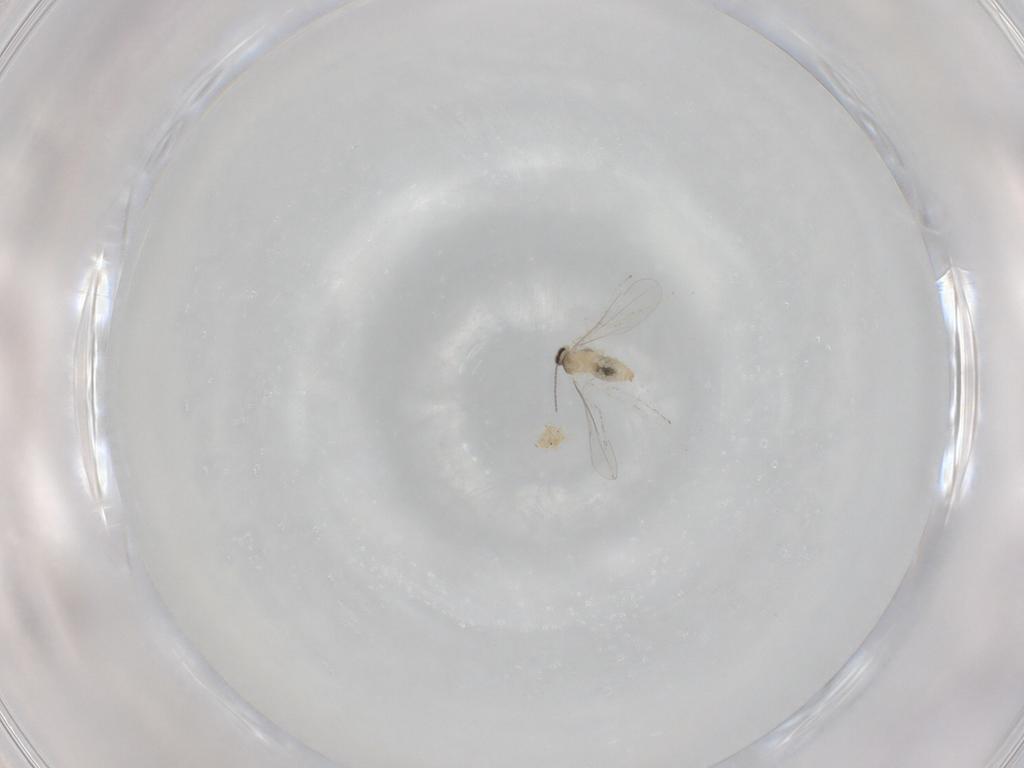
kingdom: Animalia
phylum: Arthropoda
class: Insecta
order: Diptera
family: Cecidomyiidae
